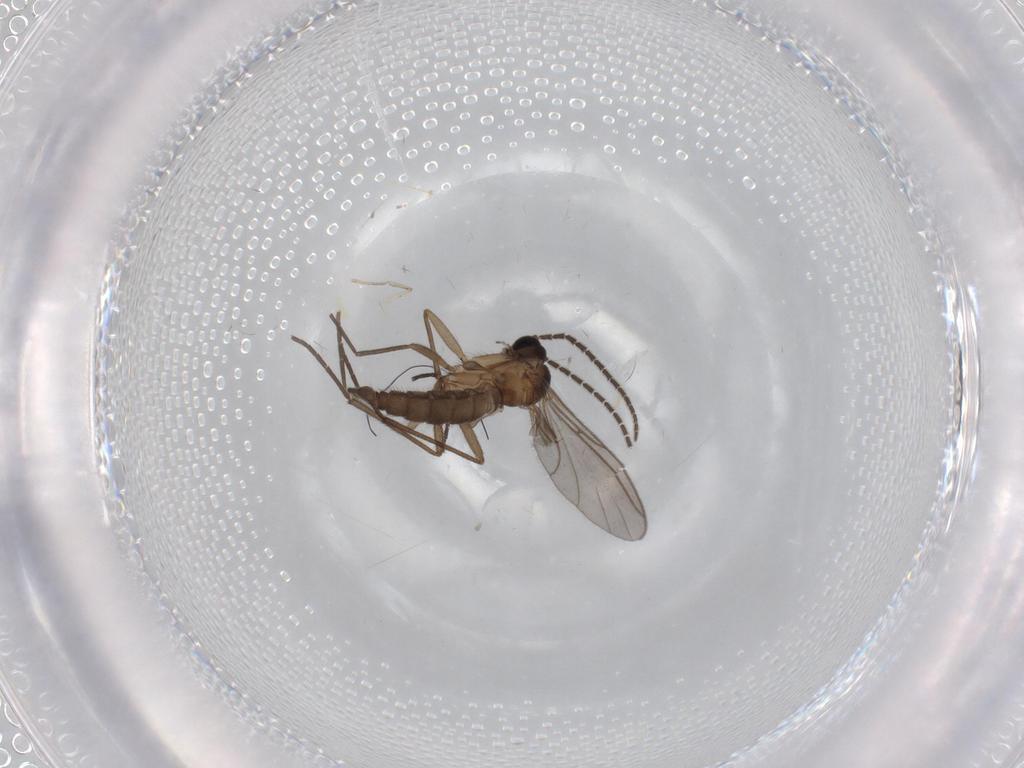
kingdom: Animalia
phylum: Arthropoda
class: Insecta
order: Diptera
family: Sciaridae
